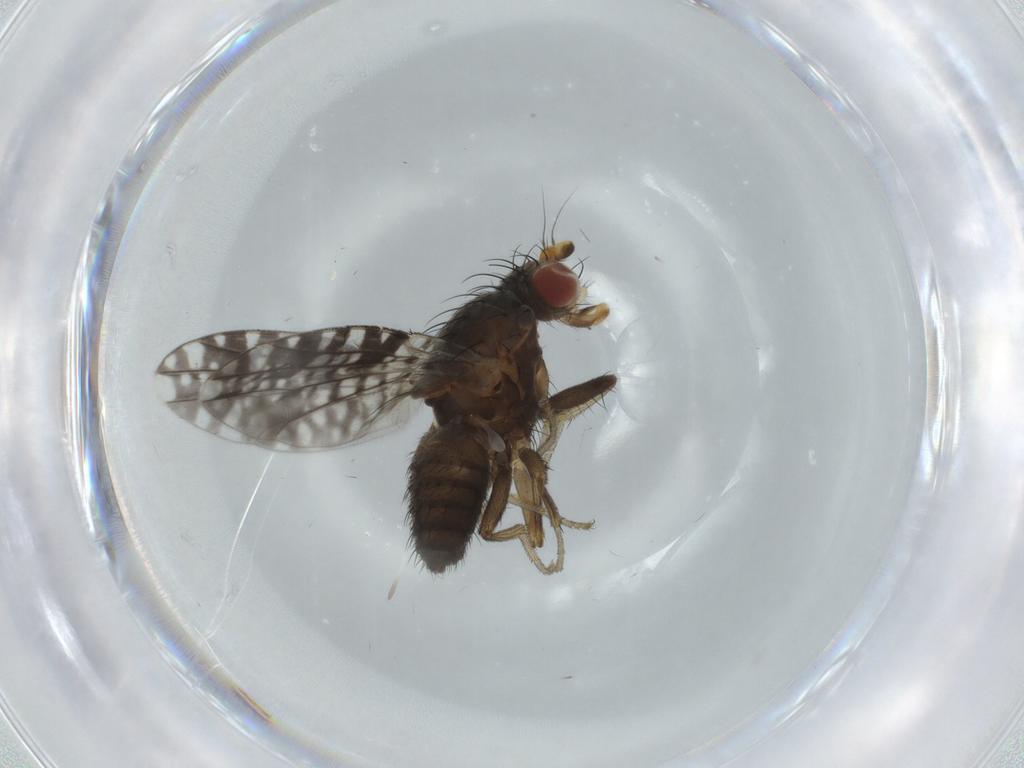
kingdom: Animalia
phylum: Arthropoda
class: Insecta
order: Diptera
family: Tephritidae
